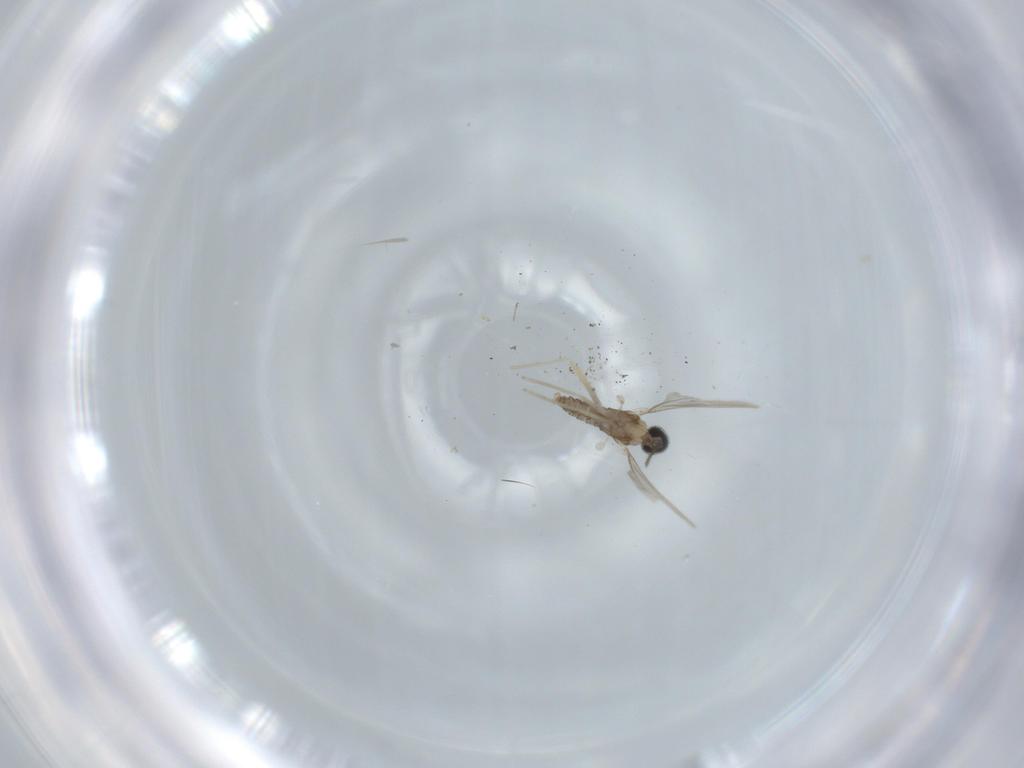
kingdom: Animalia
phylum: Arthropoda
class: Insecta
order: Diptera
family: Cecidomyiidae
